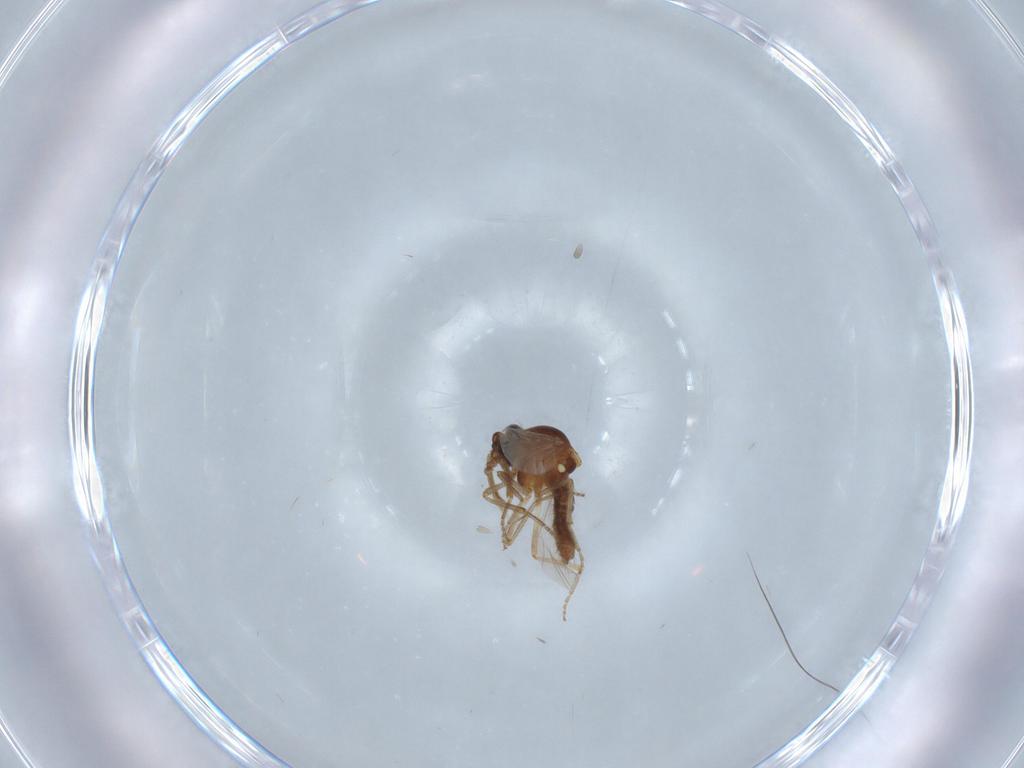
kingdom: Animalia
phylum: Arthropoda
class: Insecta
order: Diptera
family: Ceratopogonidae
